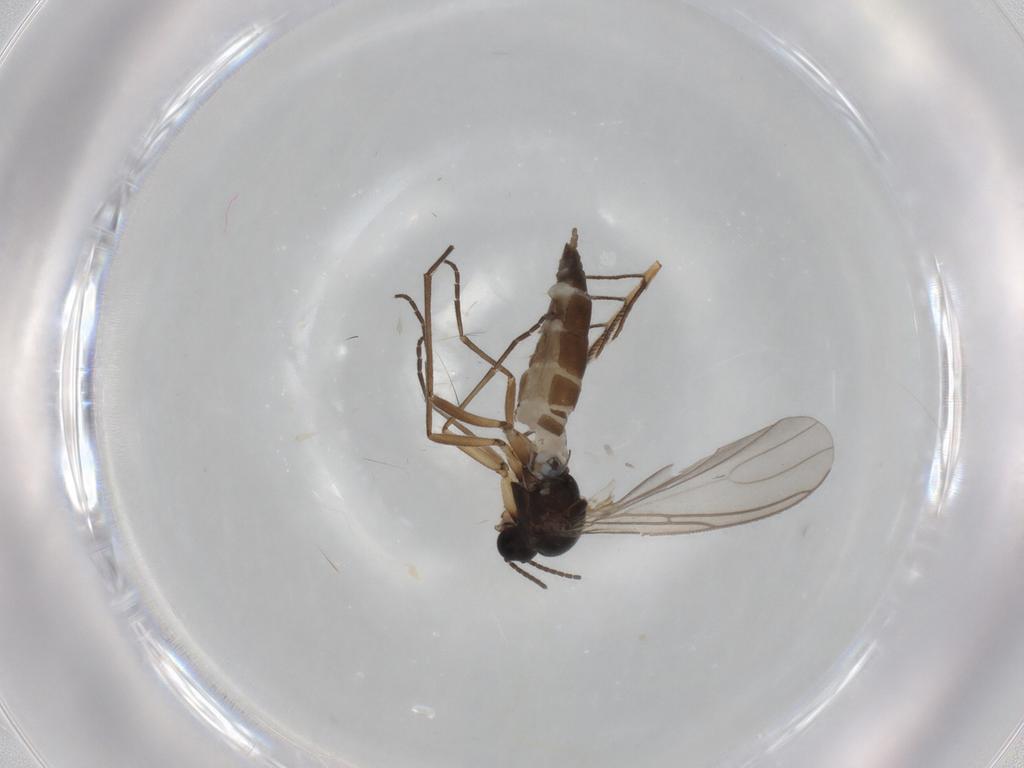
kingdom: Animalia
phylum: Arthropoda
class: Insecta
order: Diptera
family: Sciaridae
